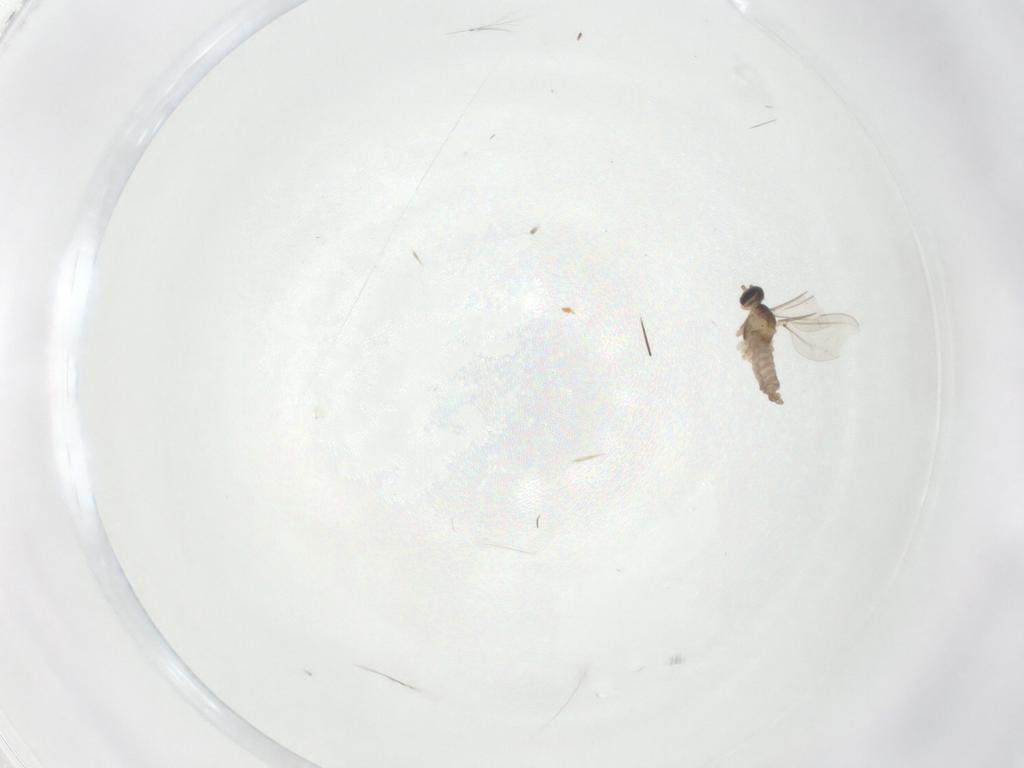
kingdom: Animalia
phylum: Arthropoda
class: Insecta
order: Diptera
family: Cecidomyiidae
